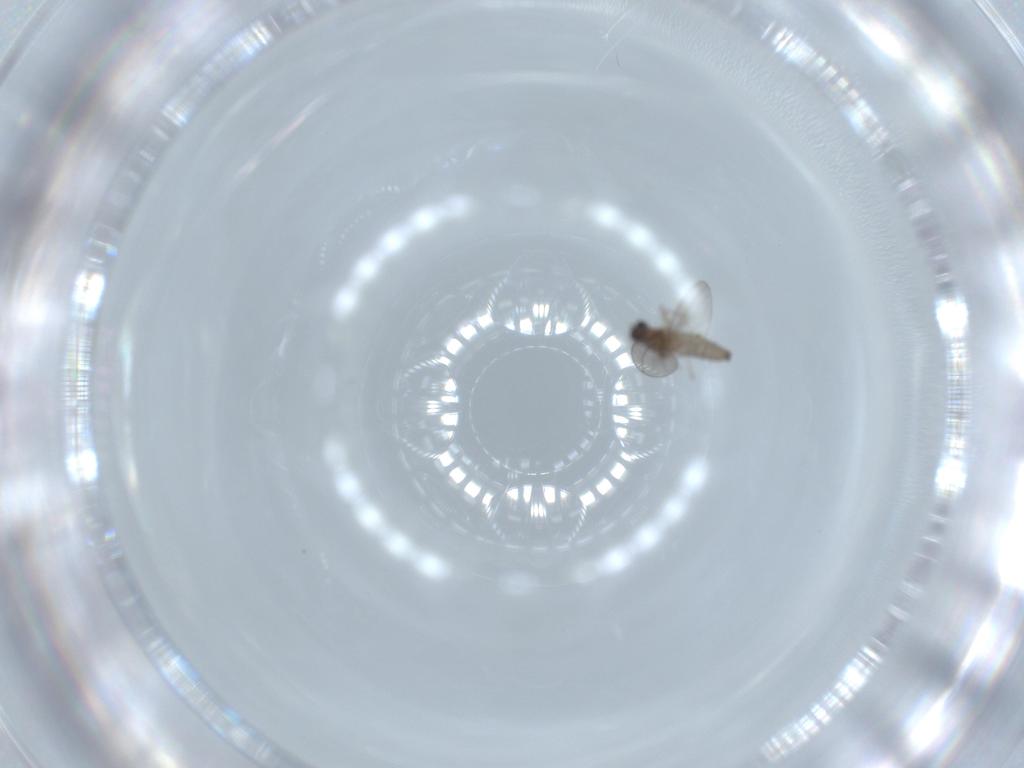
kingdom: Animalia
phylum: Arthropoda
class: Insecta
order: Diptera
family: Cecidomyiidae
